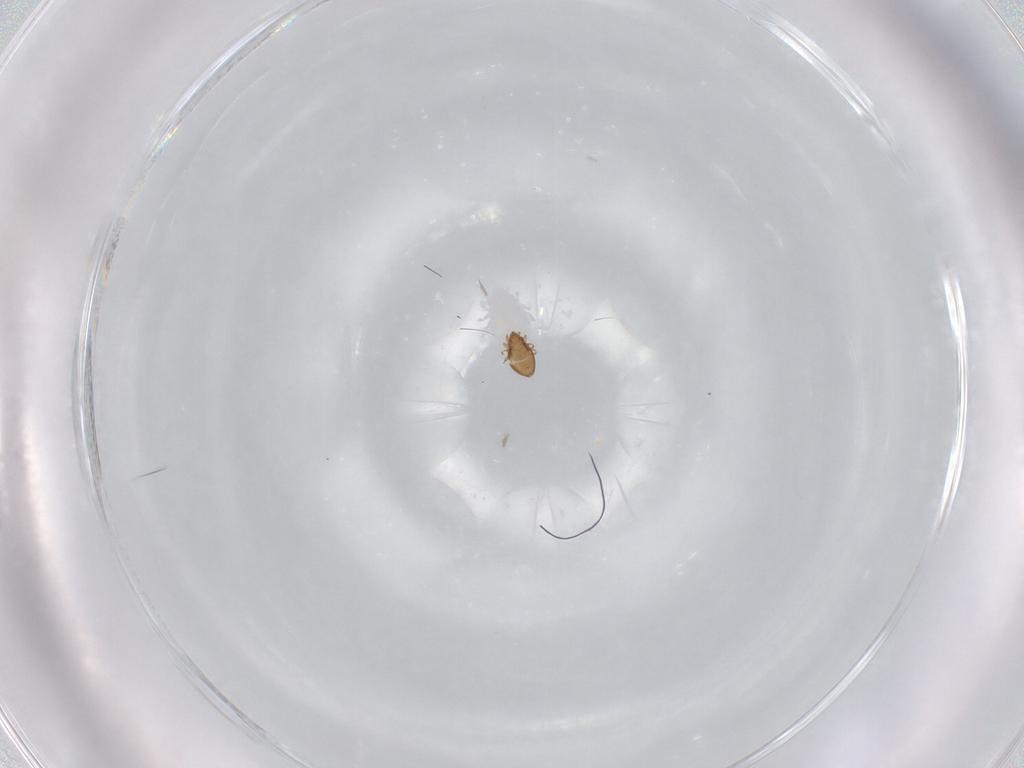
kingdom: Animalia
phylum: Arthropoda
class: Arachnida
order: Sarcoptiformes
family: Oribatulidae
